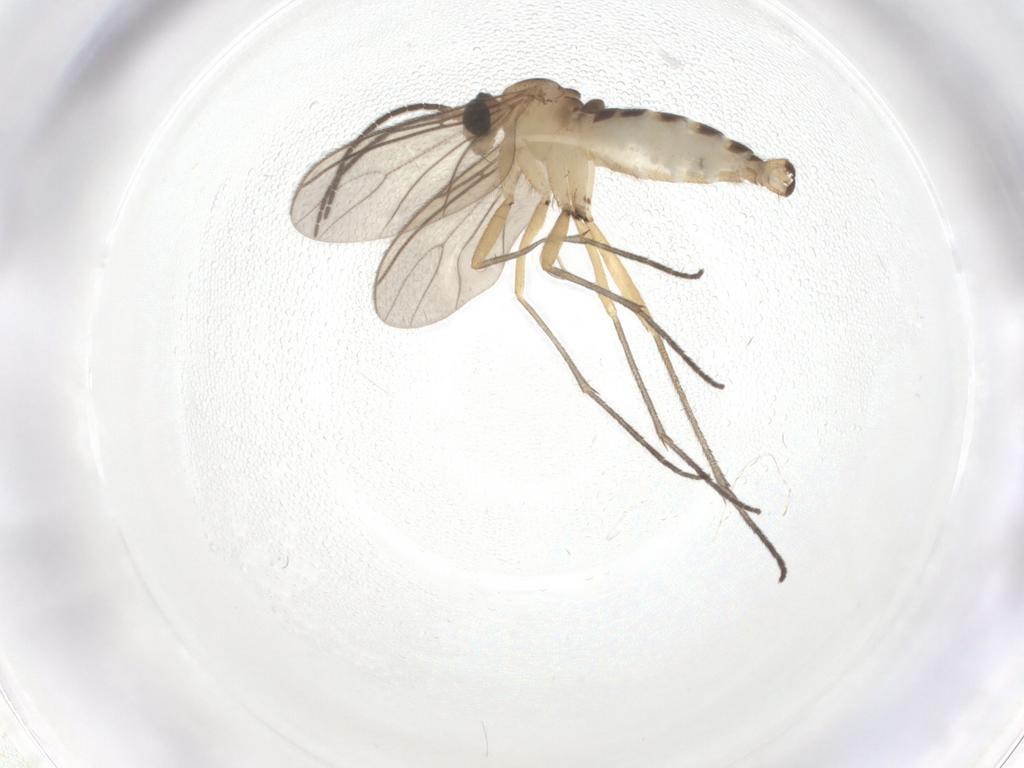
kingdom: Animalia
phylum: Arthropoda
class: Insecta
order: Diptera
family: Sciaridae
